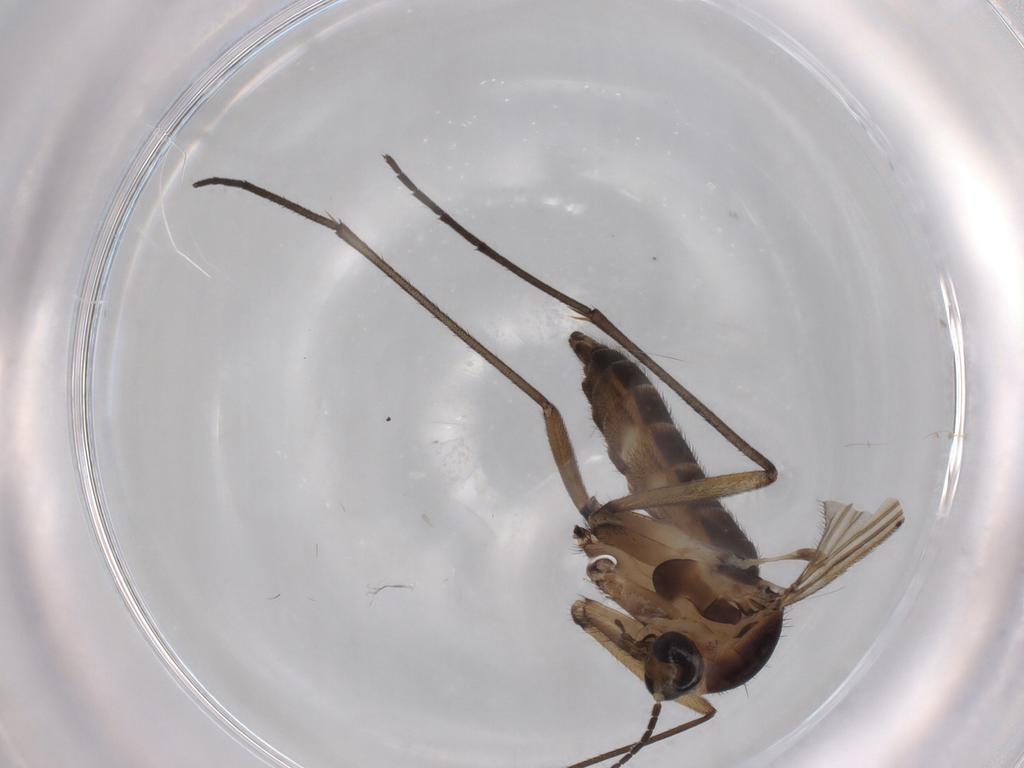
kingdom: Animalia
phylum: Arthropoda
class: Insecta
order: Diptera
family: Sciaridae
